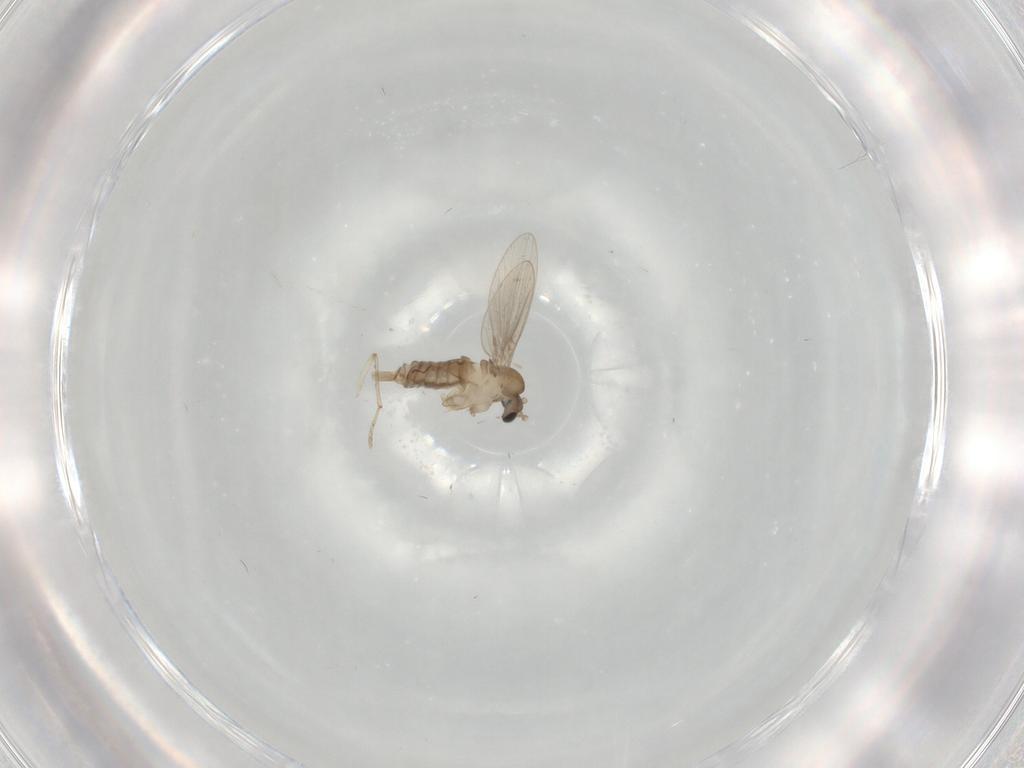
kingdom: Animalia
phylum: Arthropoda
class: Insecta
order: Diptera
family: Cecidomyiidae
